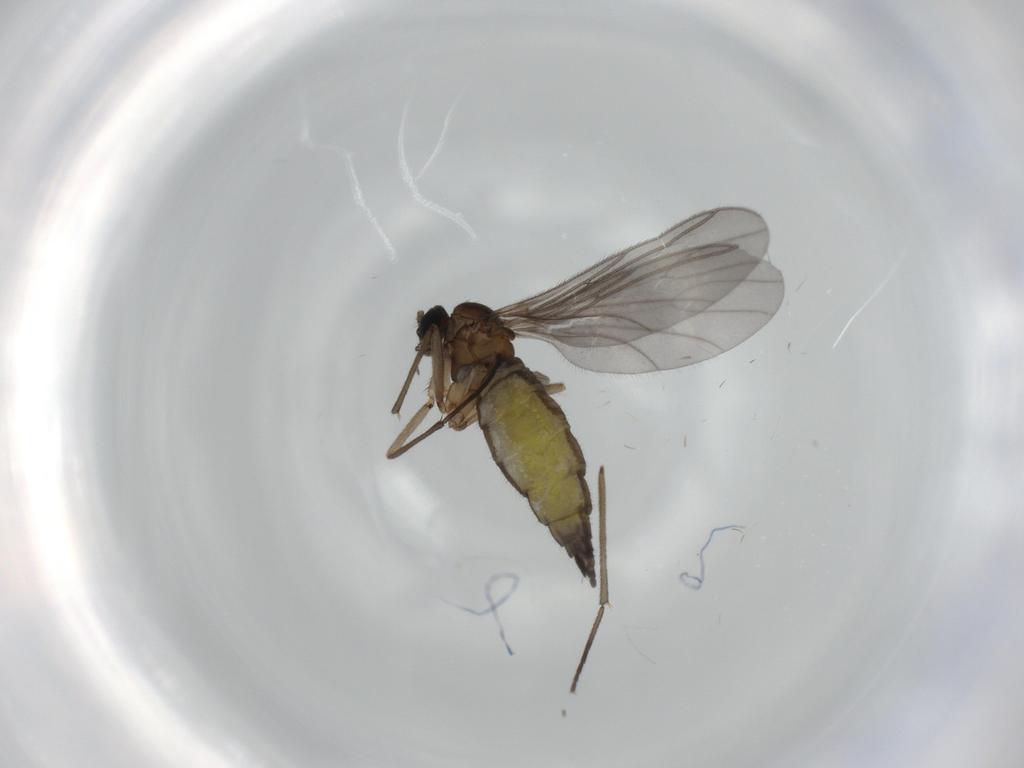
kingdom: Animalia
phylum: Arthropoda
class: Insecta
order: Diptera
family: Sciaridae
